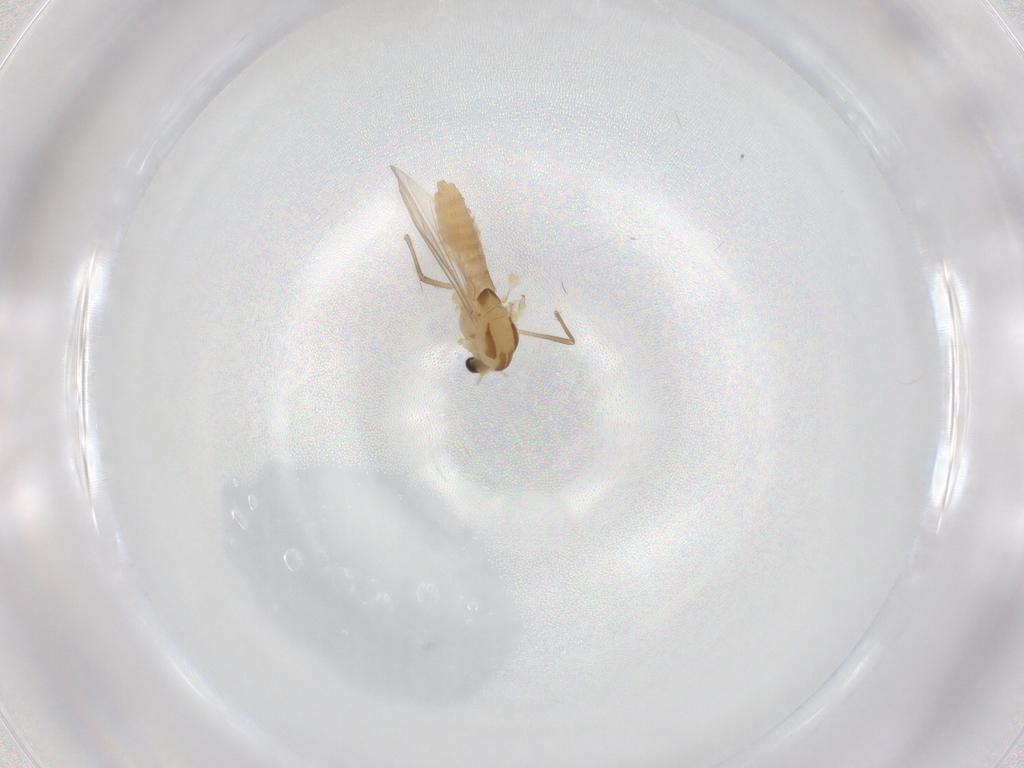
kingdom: Animalia
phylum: Arthropoda
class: Insecta
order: Diptera
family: Chironomidae
